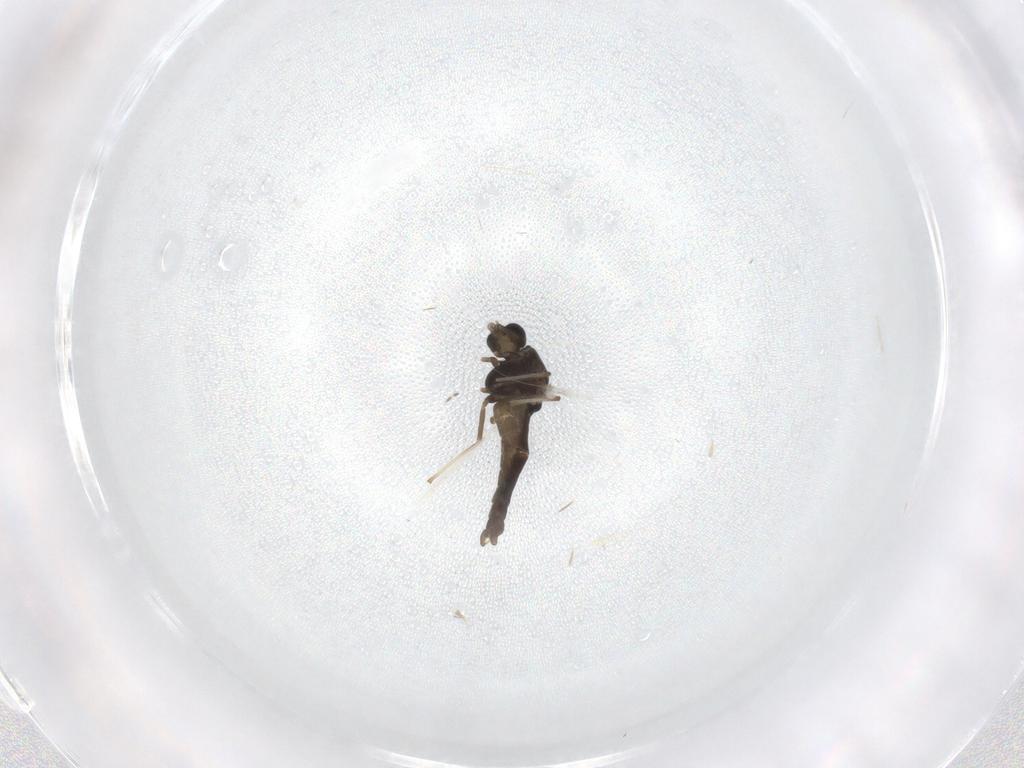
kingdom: Animalia
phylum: Arthropoda
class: Insecta
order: Diptera
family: Chironomidae
